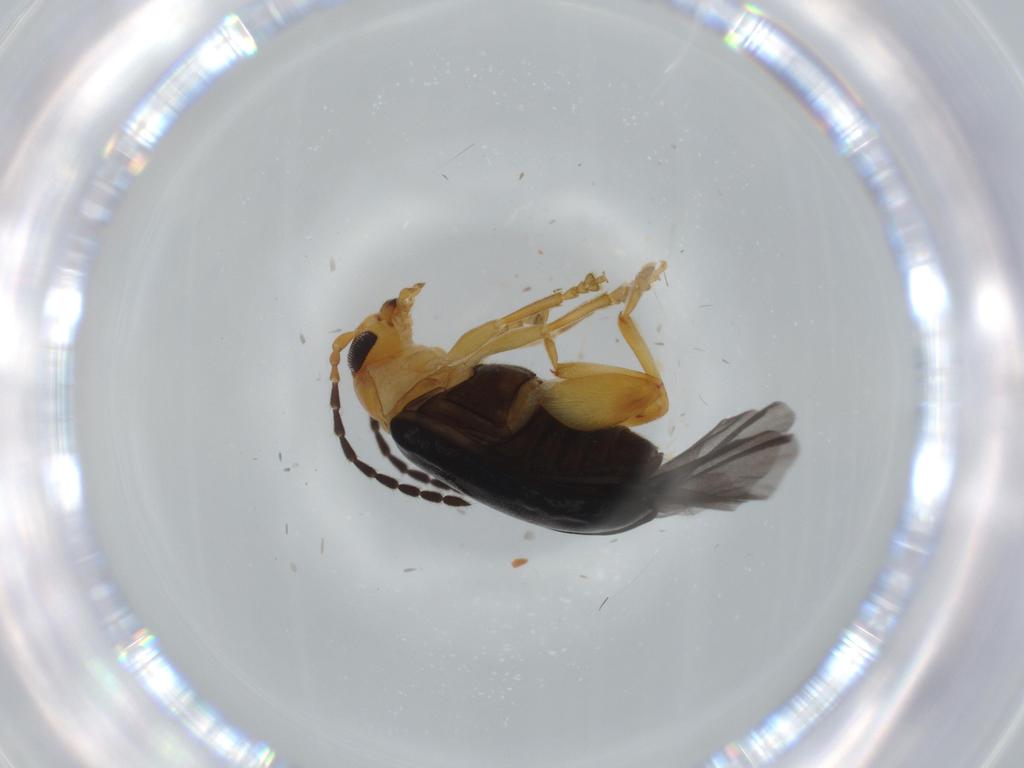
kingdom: Animalia
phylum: Arthropoda
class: Insecta
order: Coleoptera
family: Chrysomelidae
